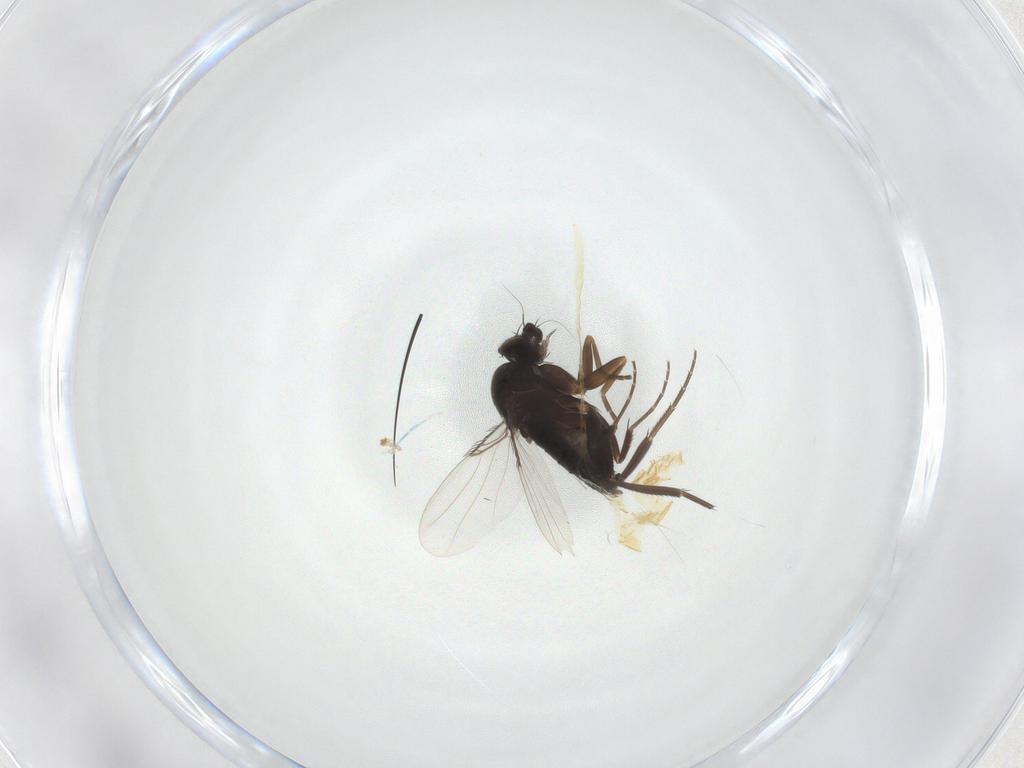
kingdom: Animalia
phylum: Arthropoda
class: Insecta
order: Diptera
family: Phoridae
